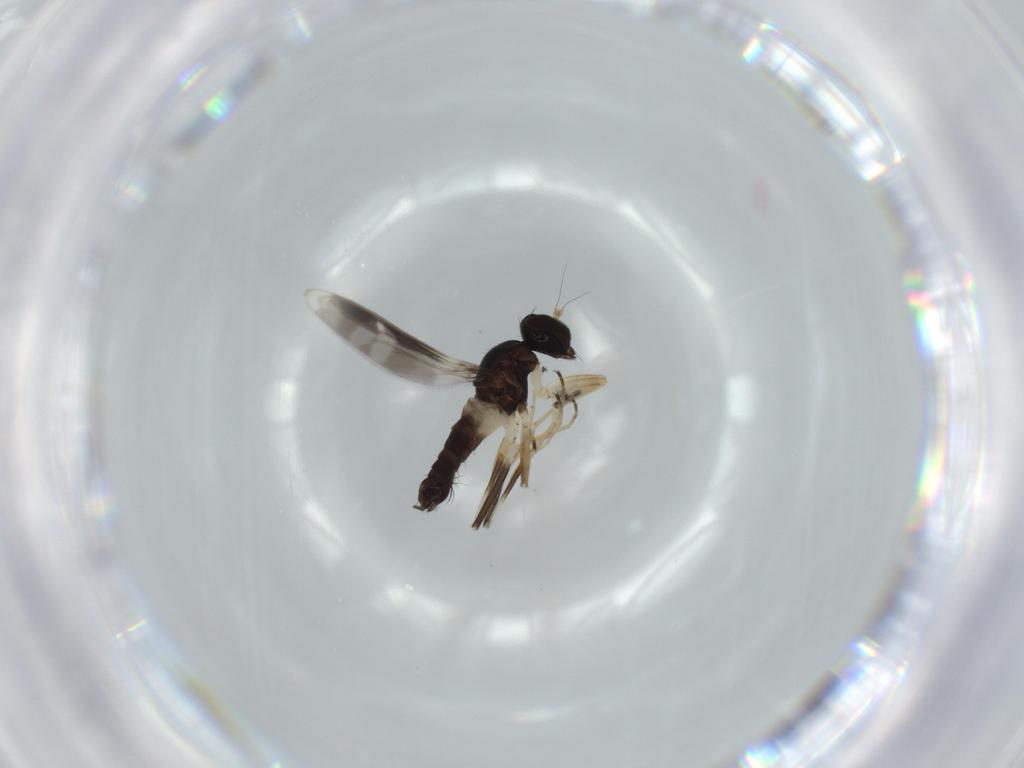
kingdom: Animalia
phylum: Arthropoda
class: Insecta
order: Diptera
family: Hybotidae
